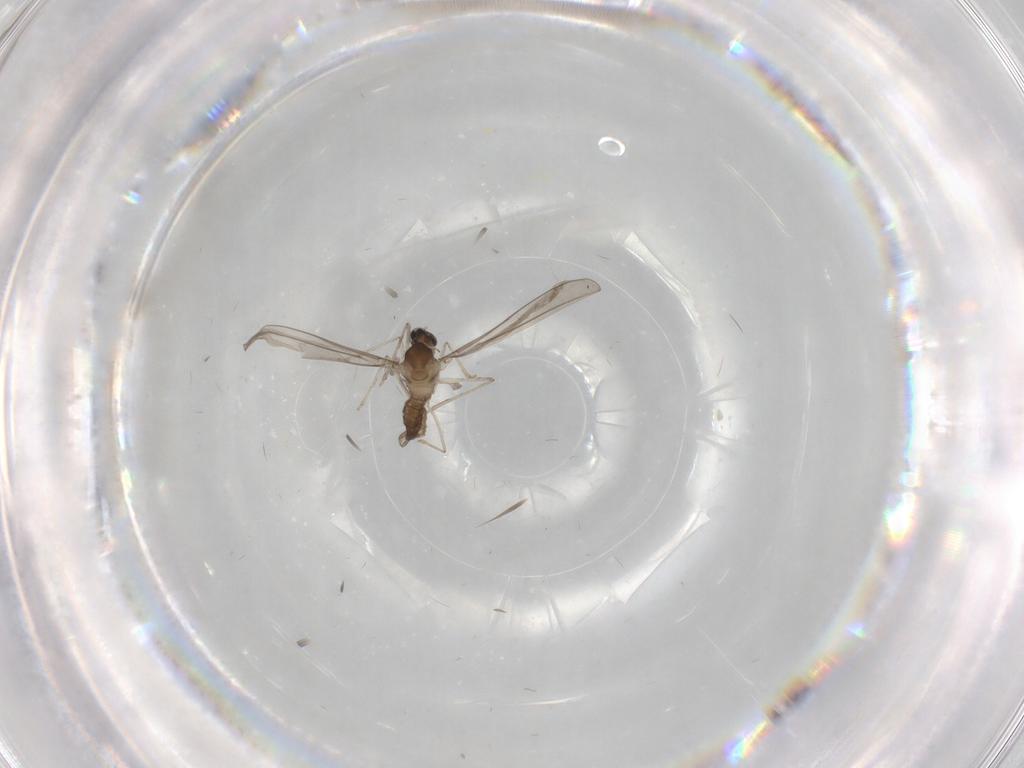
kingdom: Animalia
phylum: Arthropoda
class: Insecta
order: Diptera
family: Cecidomyiidae
